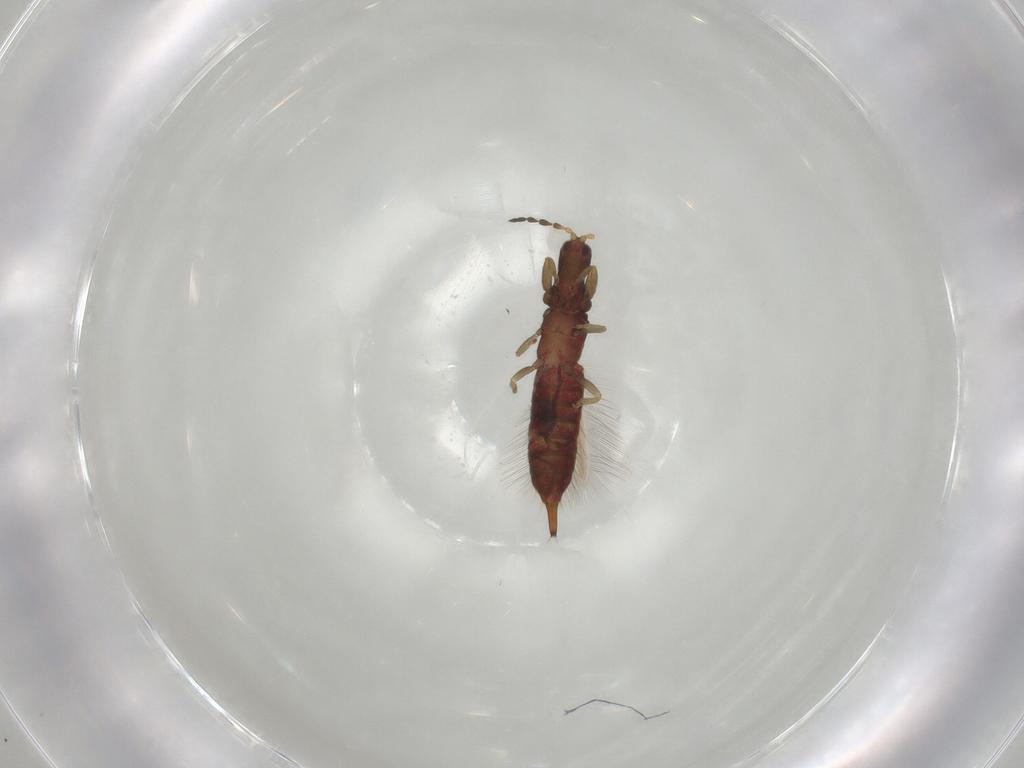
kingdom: Animalia
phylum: Arthropoda
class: Insecta
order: Thysanoptera
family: Phlaeothripidae
